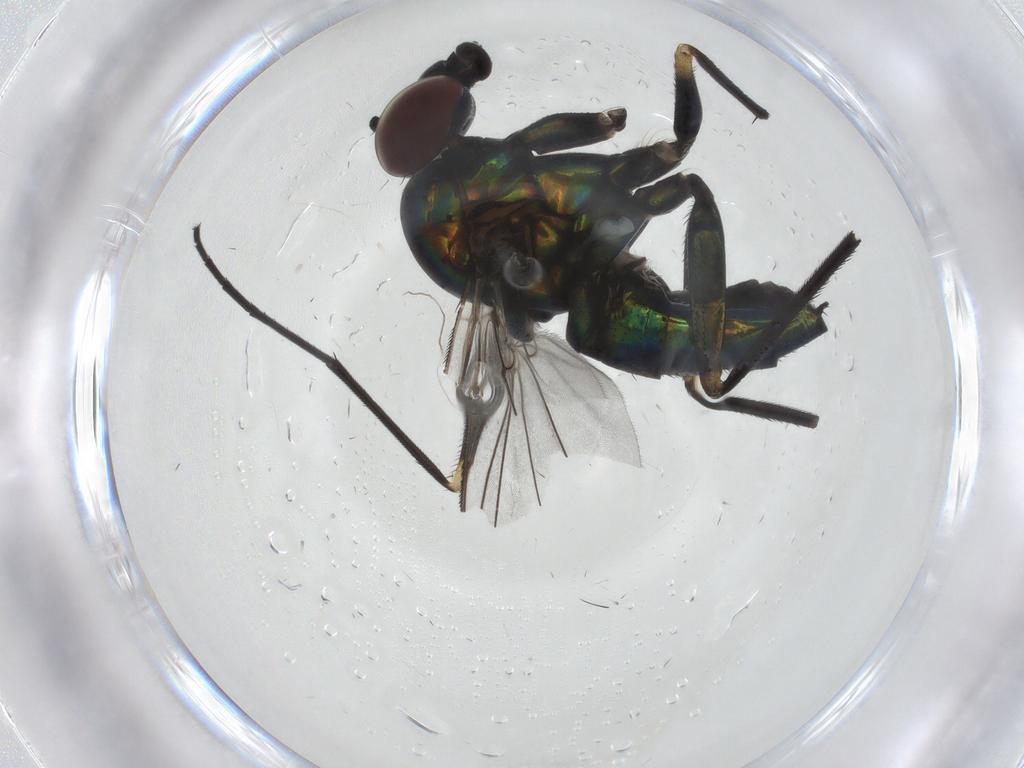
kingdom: Animalia
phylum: Arthropoda
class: Insecta
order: Diptera
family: Dolichopodidae
